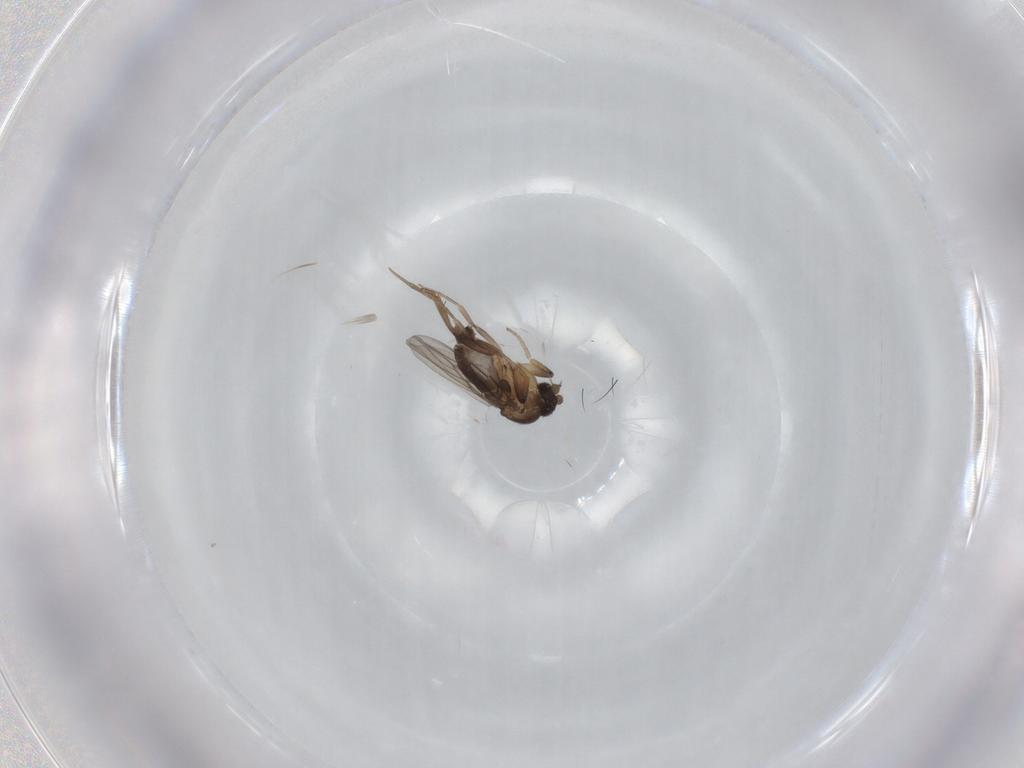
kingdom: Animalia
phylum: Arthropoda
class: Insecta
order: Diptera
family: Phoridae
